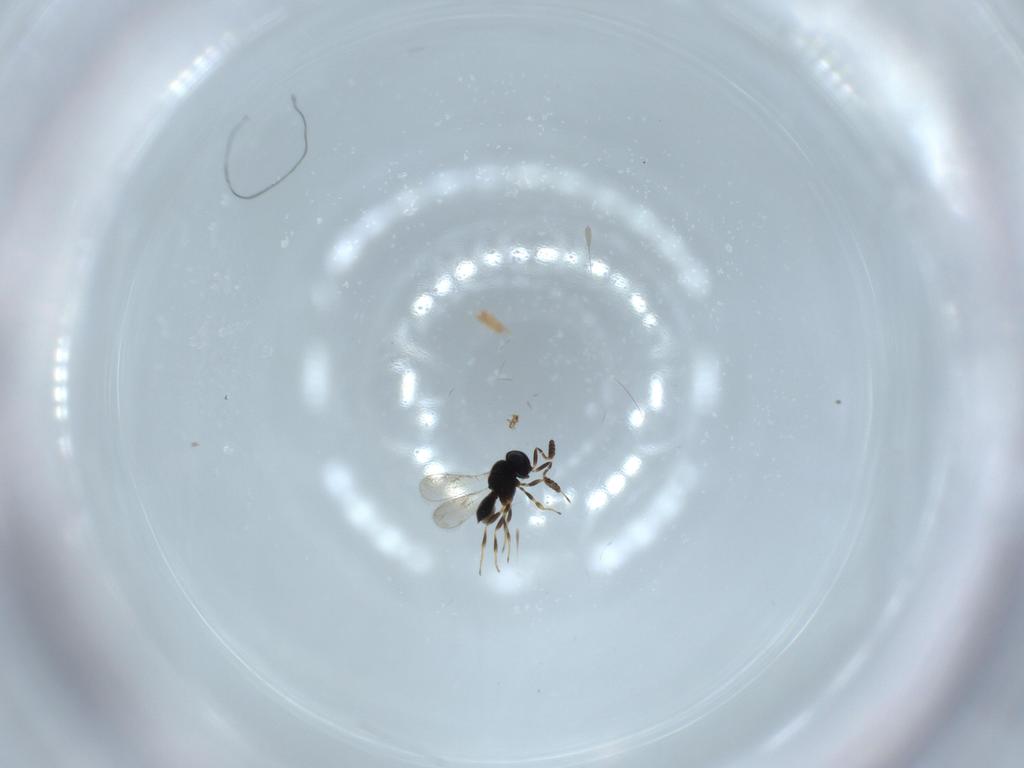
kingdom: Animalia
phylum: Arthropoda
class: Insecta
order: Hymenoptera
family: Scelionidae
